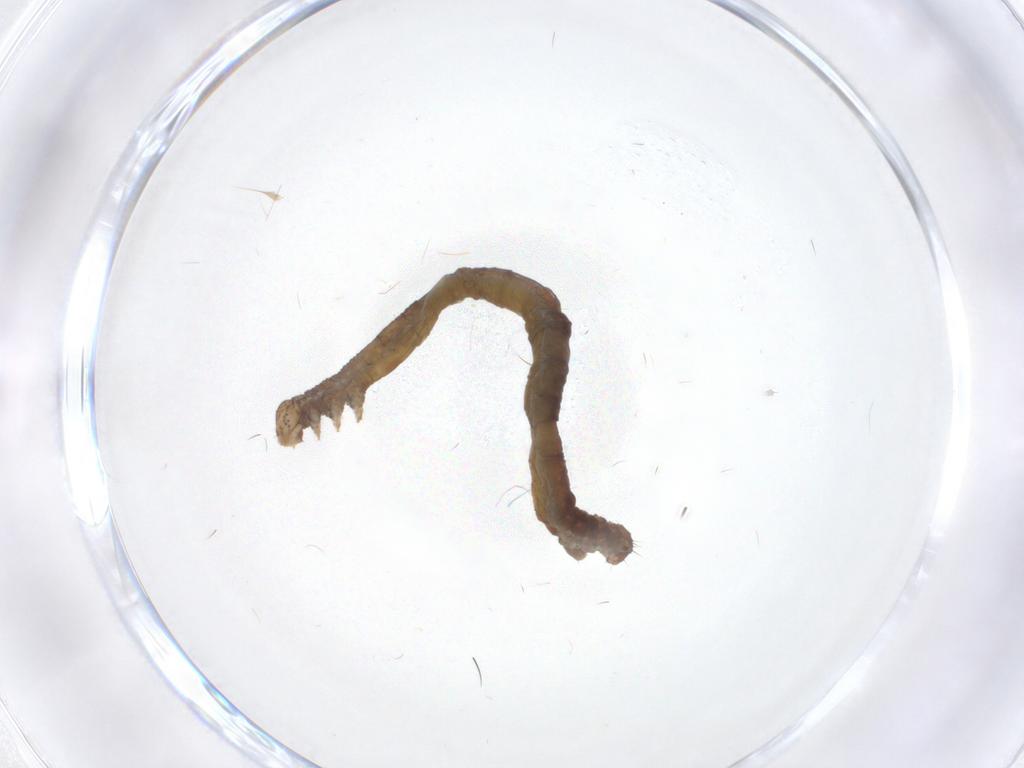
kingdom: Animalia
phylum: Arthropoda
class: Insecta
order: Lepidoptera
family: Geometridae
